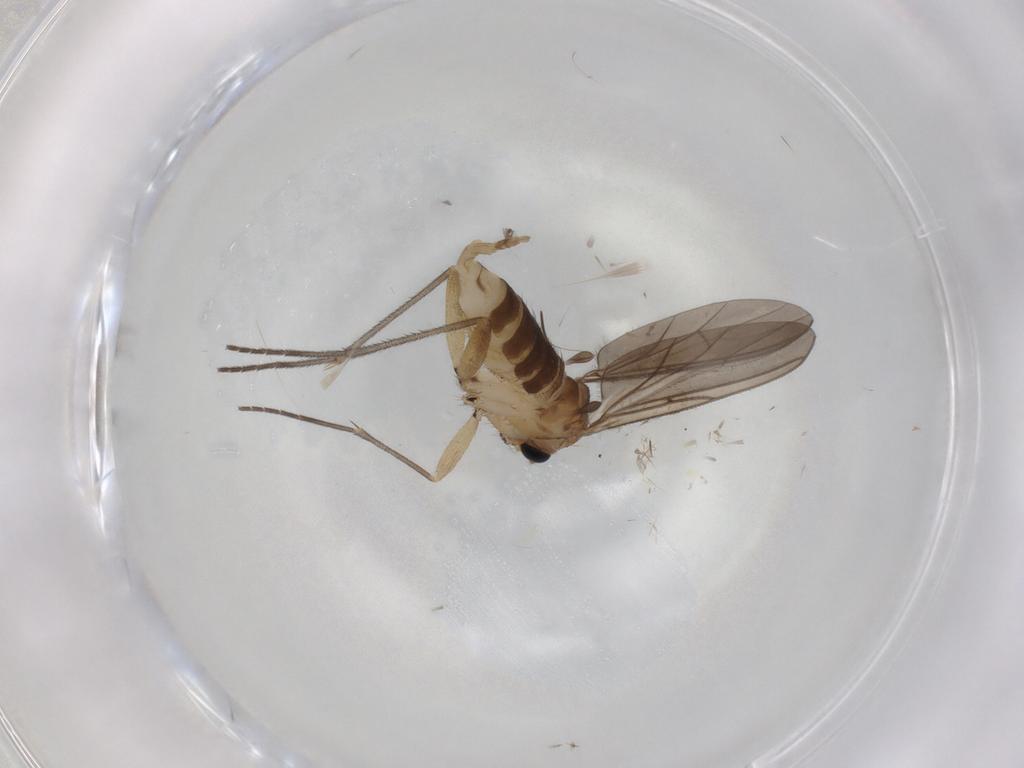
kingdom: Animalia
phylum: Arthropoda
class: Insecta
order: Diptera
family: Sciaridae
